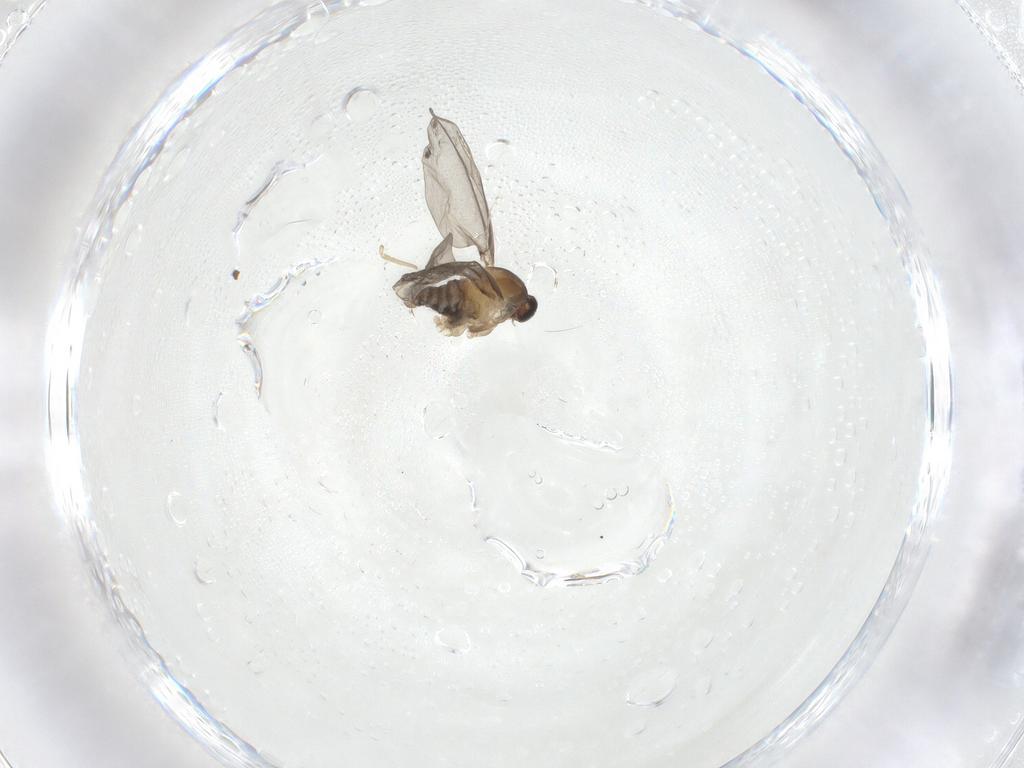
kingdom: Animalia
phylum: Arthropoda
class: Insecta
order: Diptera
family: Cecidomyiidae
